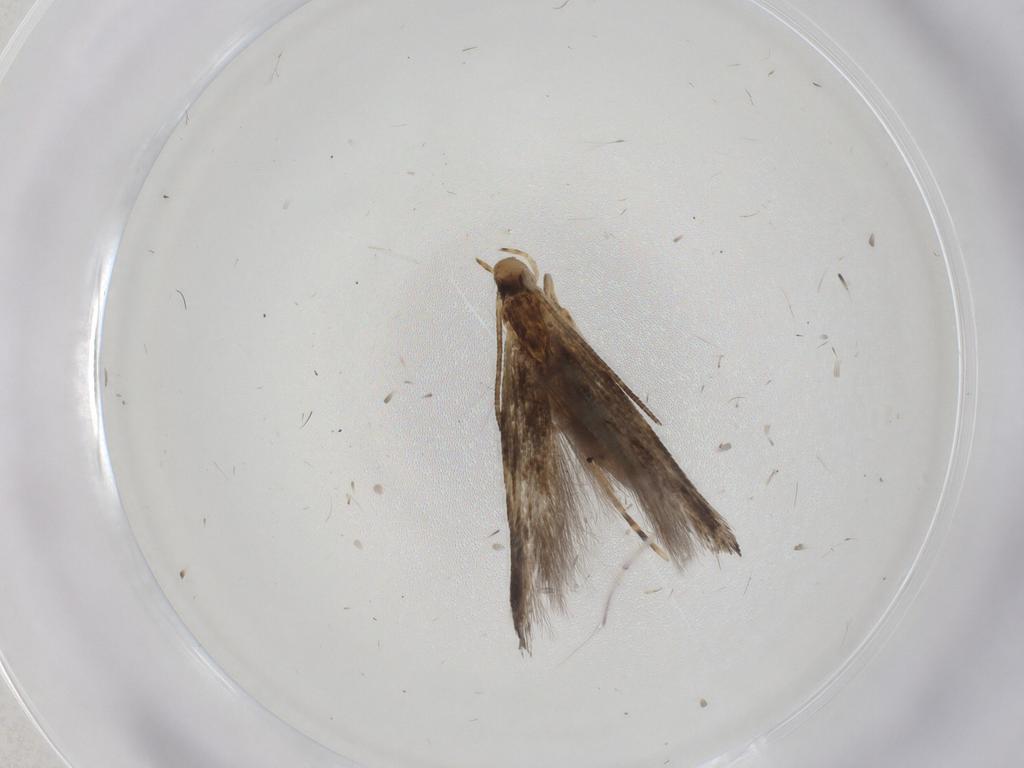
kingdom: Animalia
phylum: Arthropoda
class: Insecta
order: Lepidoptera
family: Momphidae
